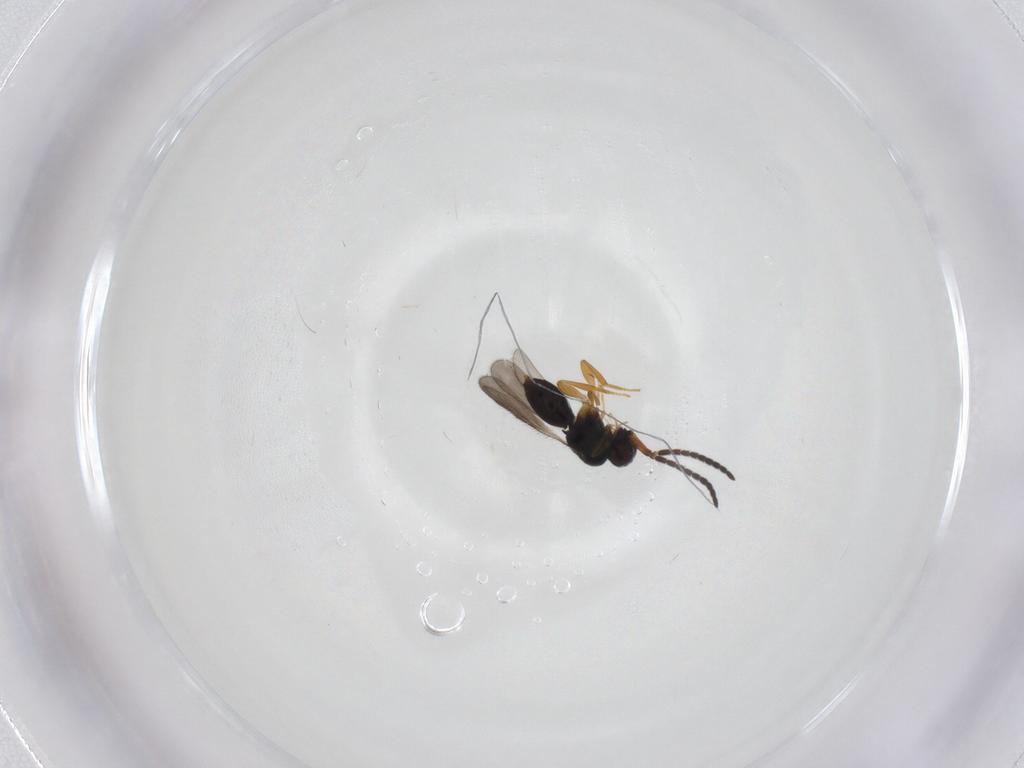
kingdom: Animalia
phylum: Arthropoda
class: Insecta
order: Hymenoptera
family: Ceraphronidae
